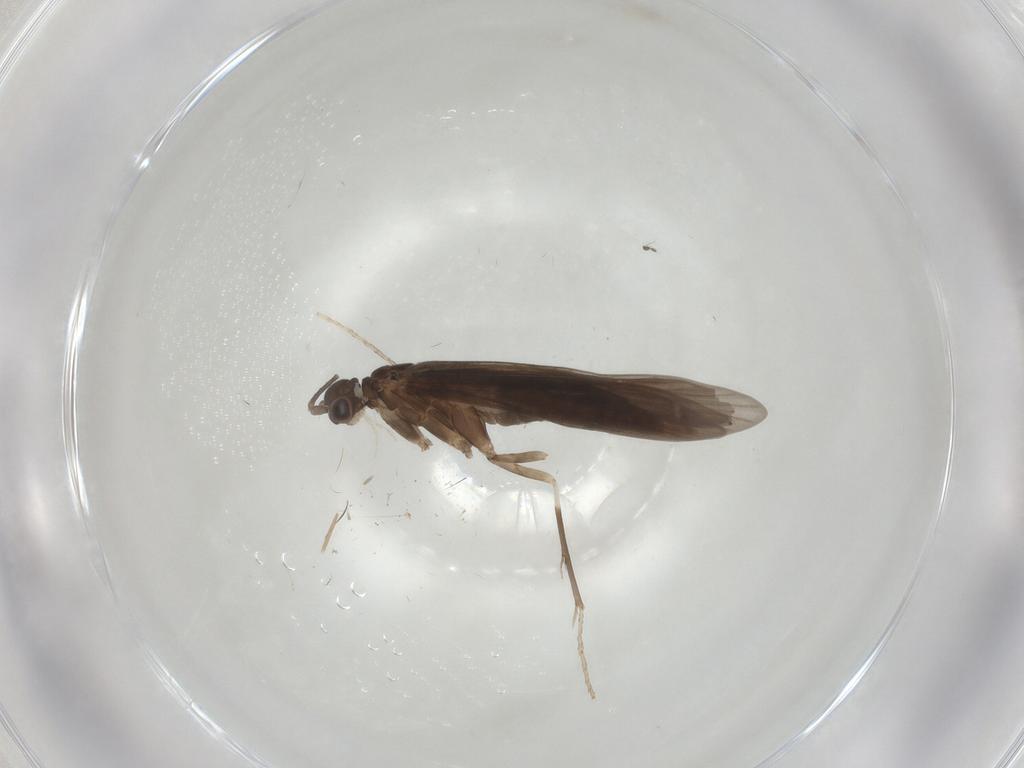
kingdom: Animalia
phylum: Arthropoda
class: Insecta
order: Trichoptera
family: Xiphocentronidae
